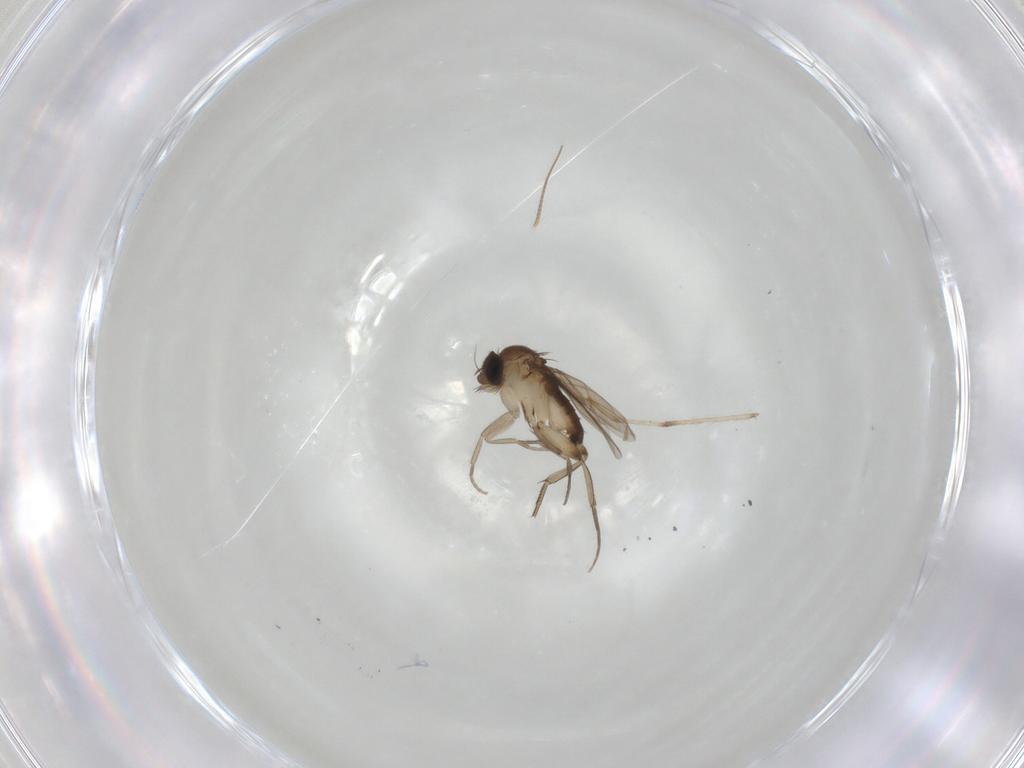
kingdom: Animalia
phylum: Arthropoda
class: Insecta
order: Diptera
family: Phoridae
